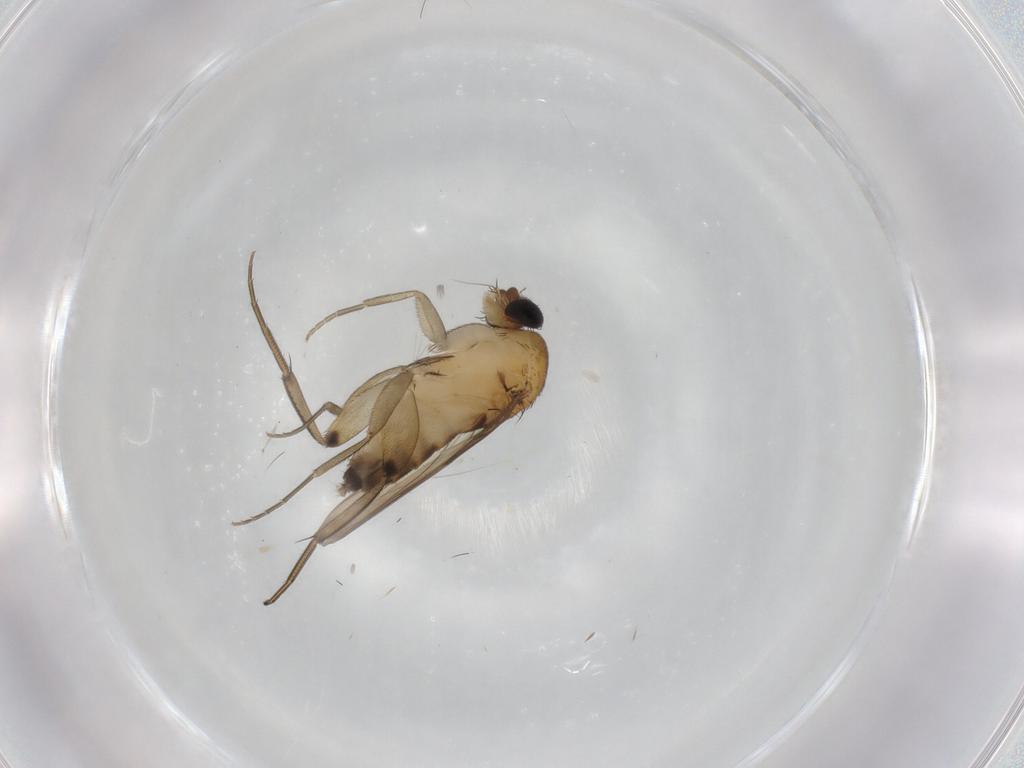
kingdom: Animalia
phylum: Arthropoda
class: Insecta
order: Diptera
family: Phoridae
